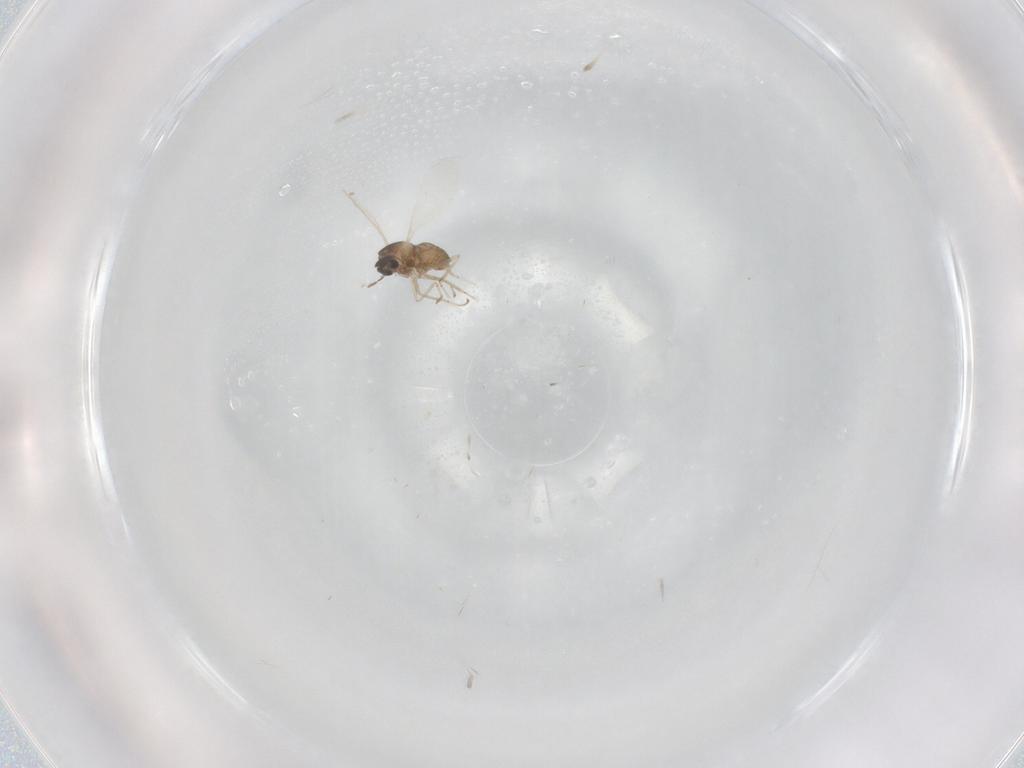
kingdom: Animalia
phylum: Arthropoda
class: Insecta
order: Diptera
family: Cecidomyiidae
